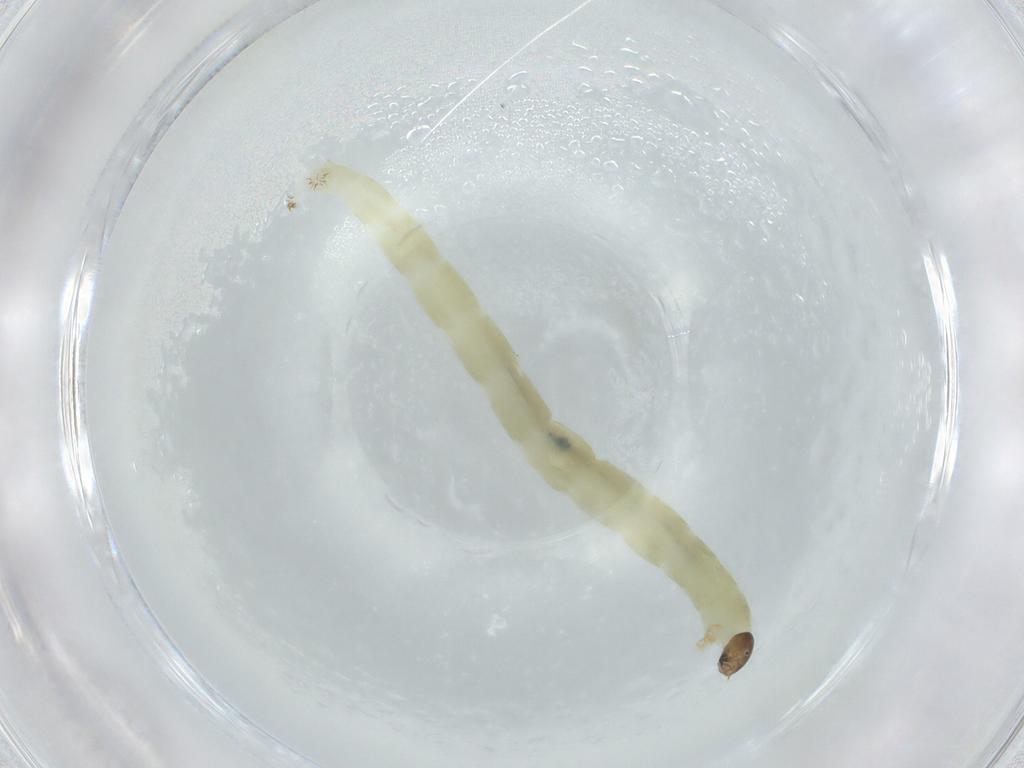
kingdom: Animalia
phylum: Arthropoda
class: Insecta
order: Diptera
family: Chironomidae
